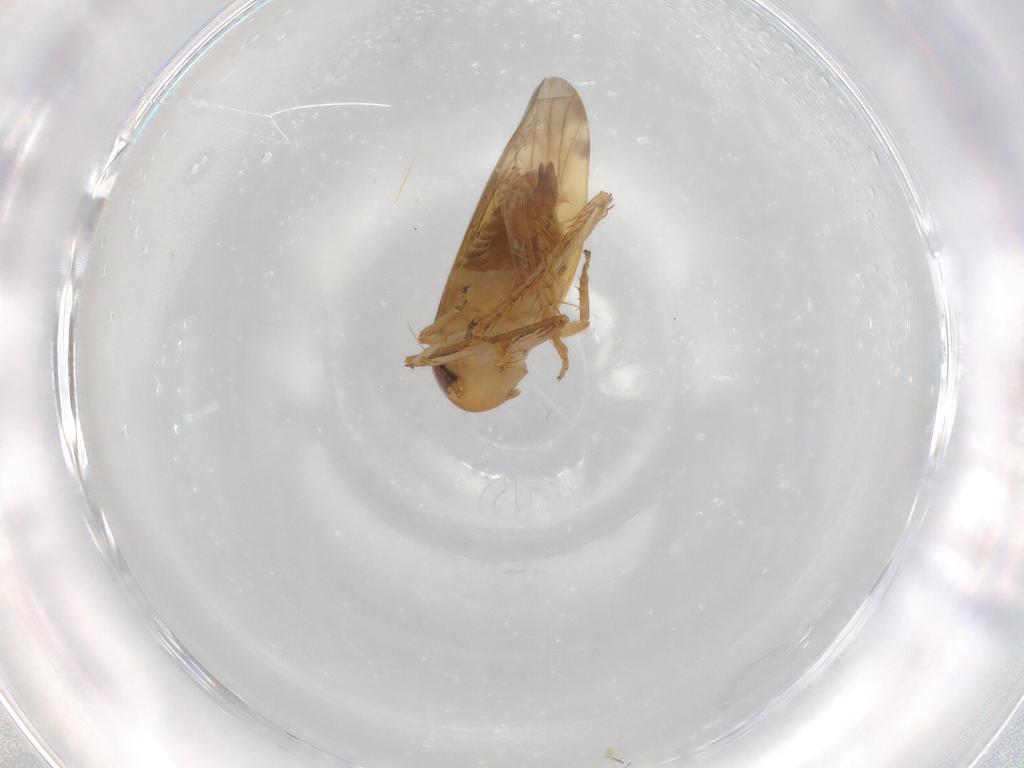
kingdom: Animalia
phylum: Arthropoda
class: Insecta
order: Hemiptera
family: Cicadellidae
